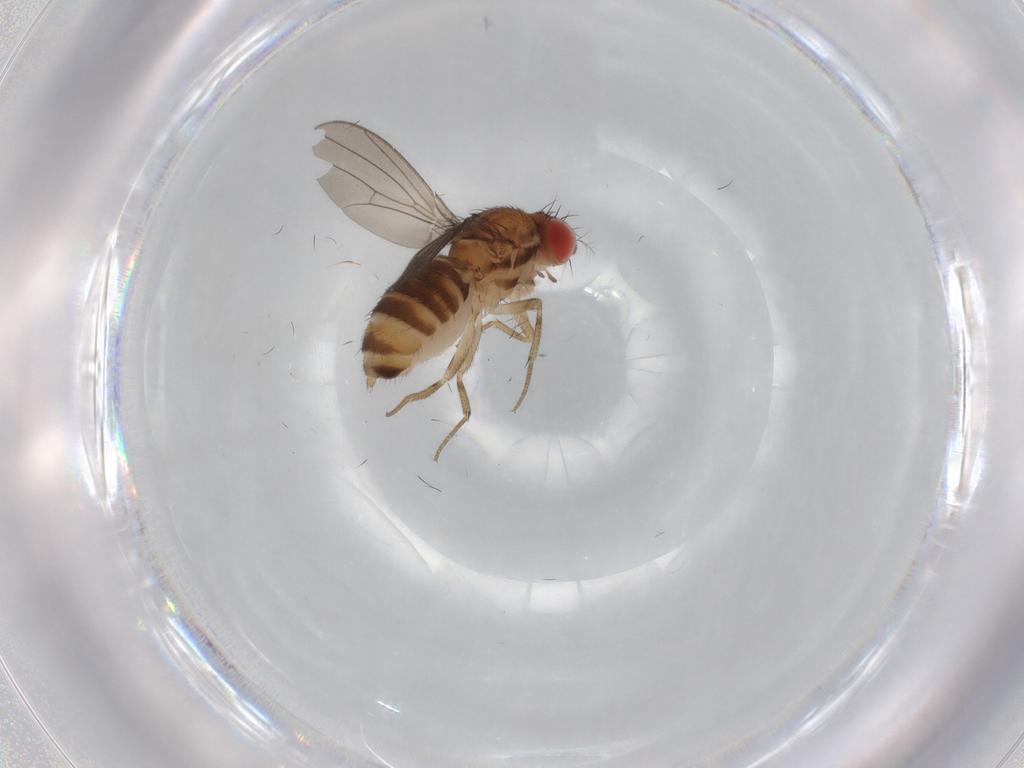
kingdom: Animalia
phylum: Arthropoda
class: Insecta
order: Diptera
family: Drosophilidae
